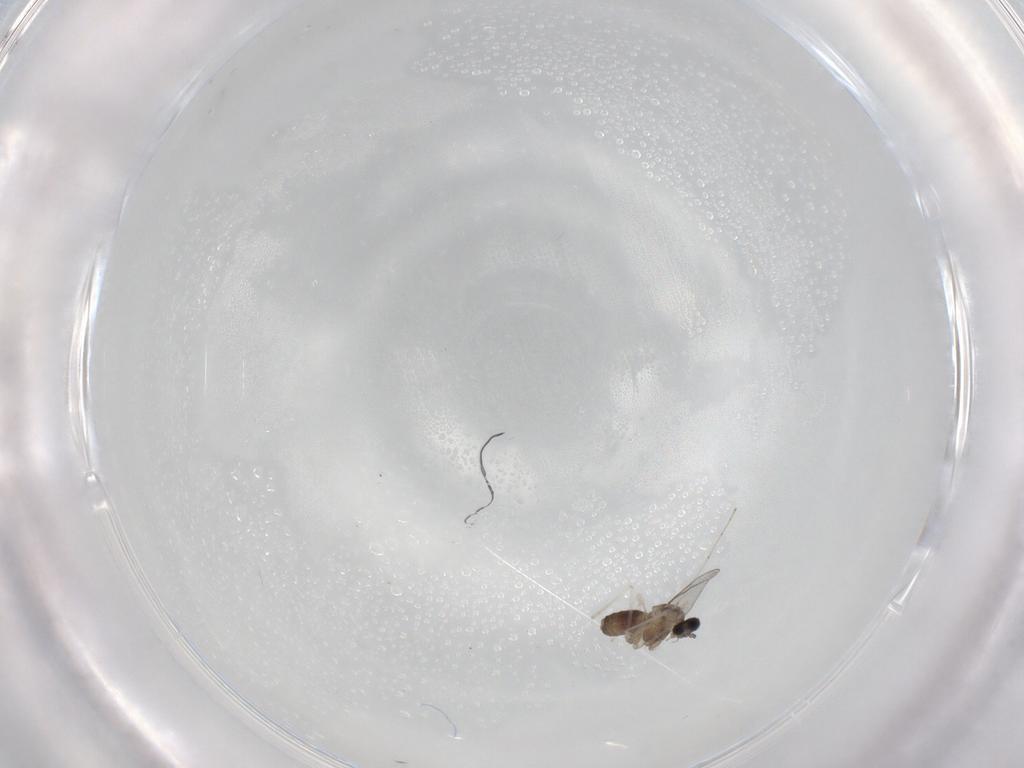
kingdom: Animalia
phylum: Arthropoda
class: Insecta
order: Diptera
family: Cecidomyiidae
